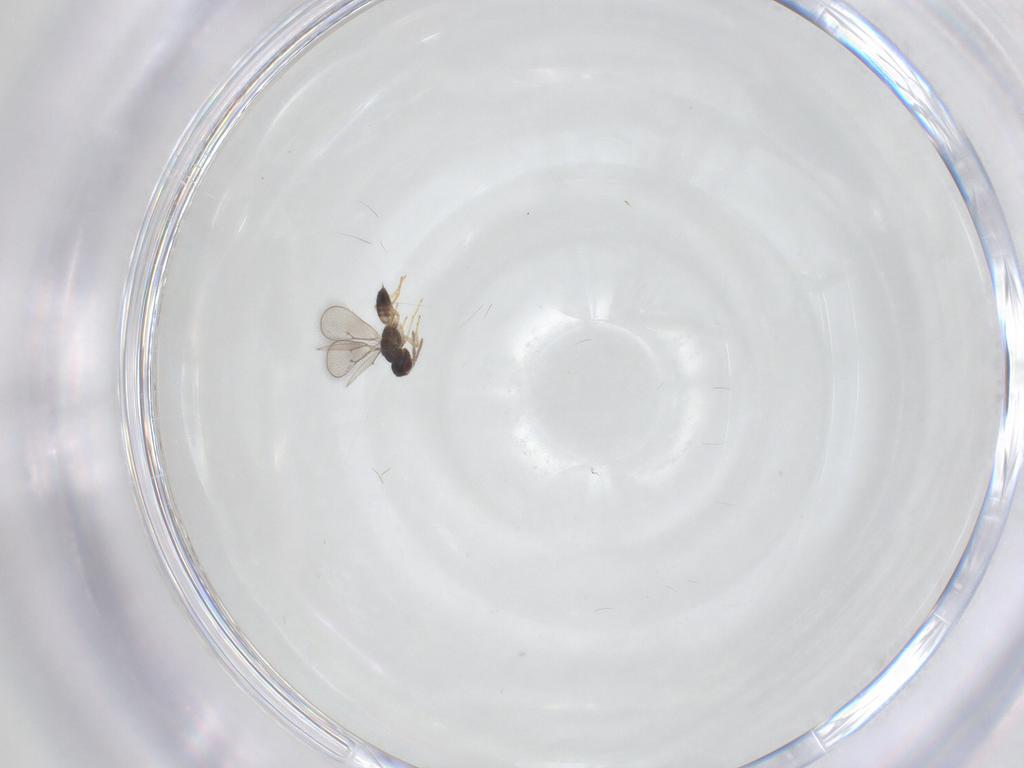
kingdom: Animalia
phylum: Arthropoda
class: Insecta
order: Hymenoptera
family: Eulophidae
